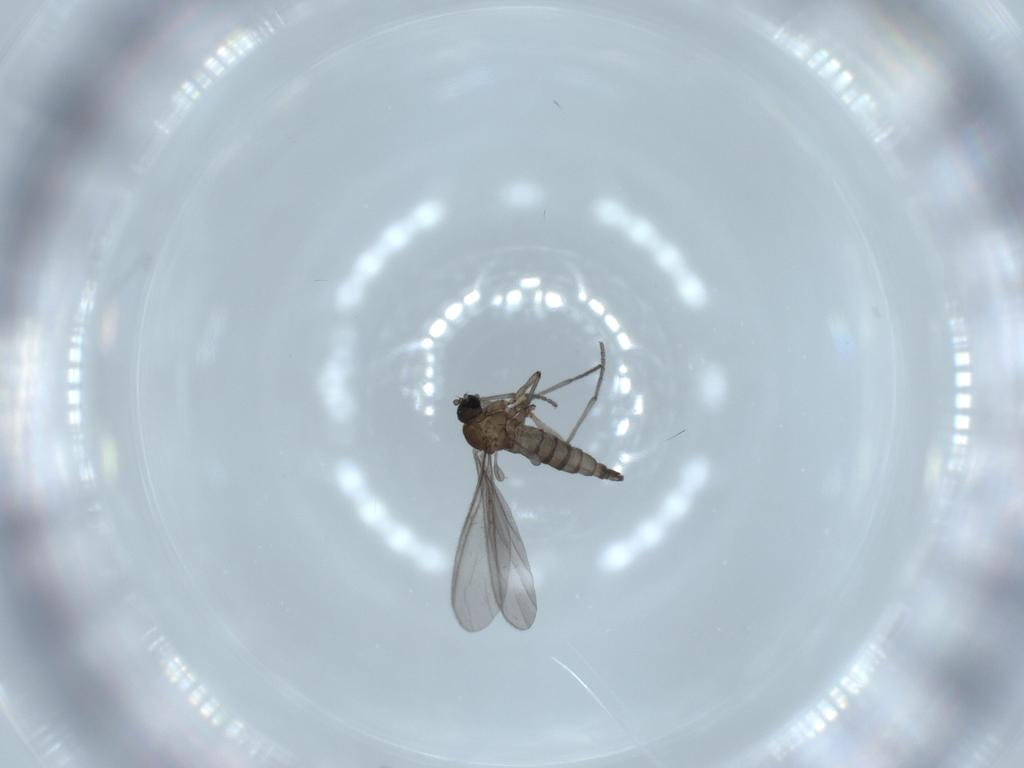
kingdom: Animalia
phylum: Arthropoda
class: Insecta
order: Diptera
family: Sciaridae
